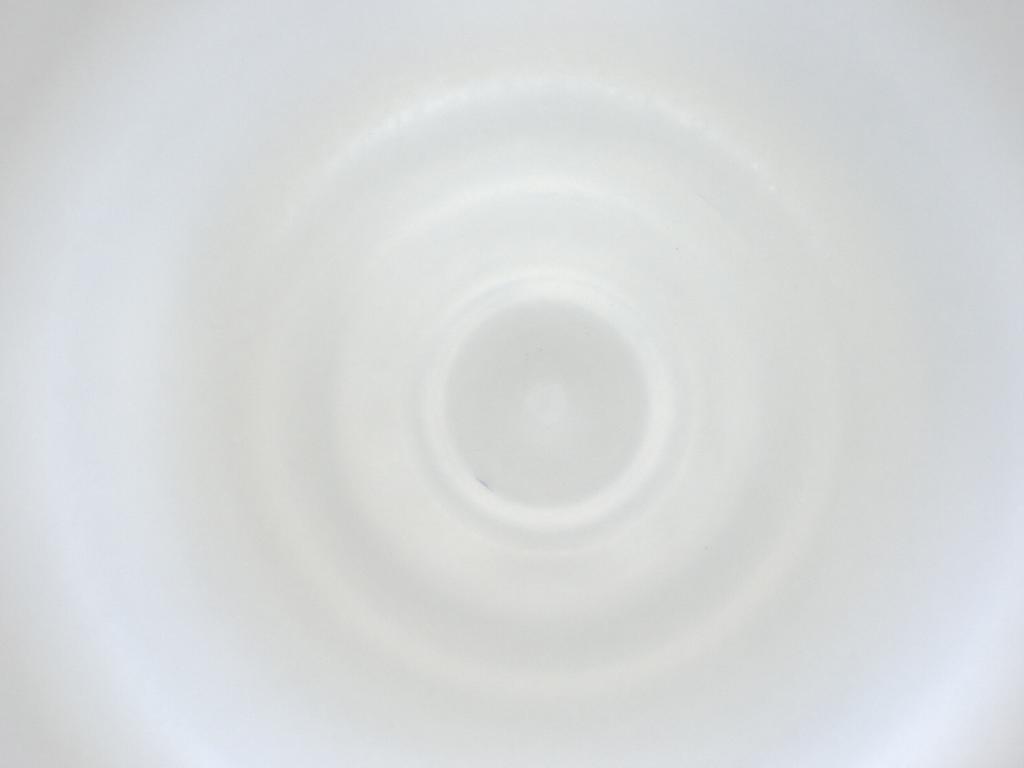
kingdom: Animalia
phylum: Arthropoda
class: Insecta
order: Diptera
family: Cecidomyiidae
